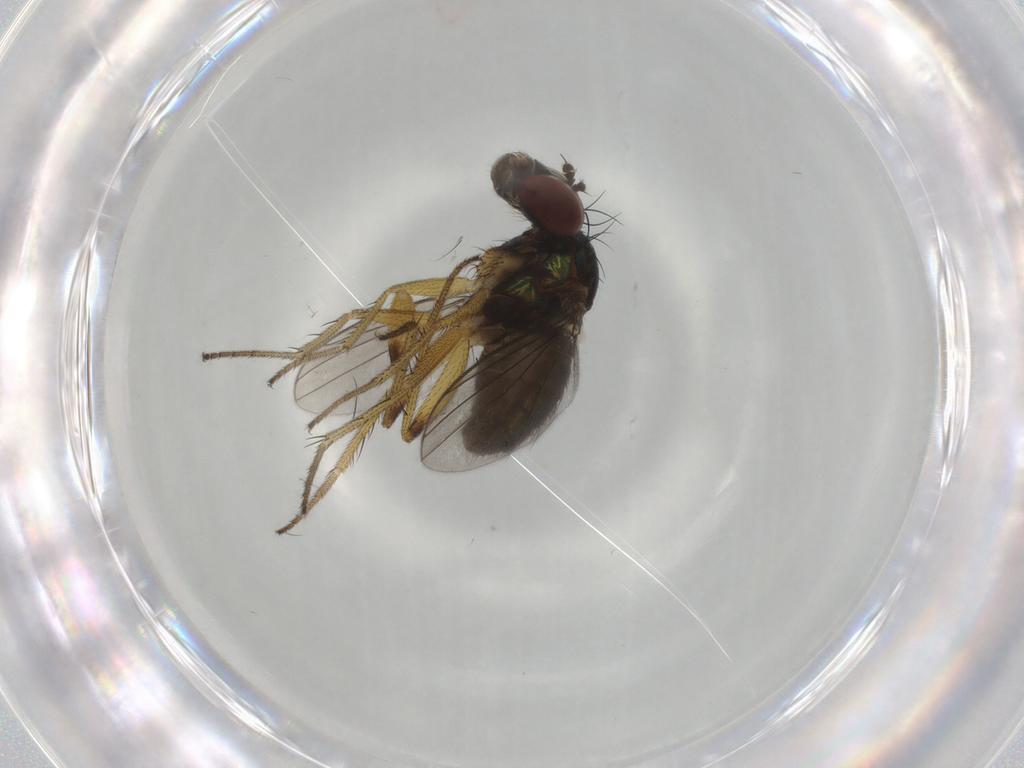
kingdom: Animalia
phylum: Arthropoda
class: Insecta
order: Diptera
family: Dolichopodidae
